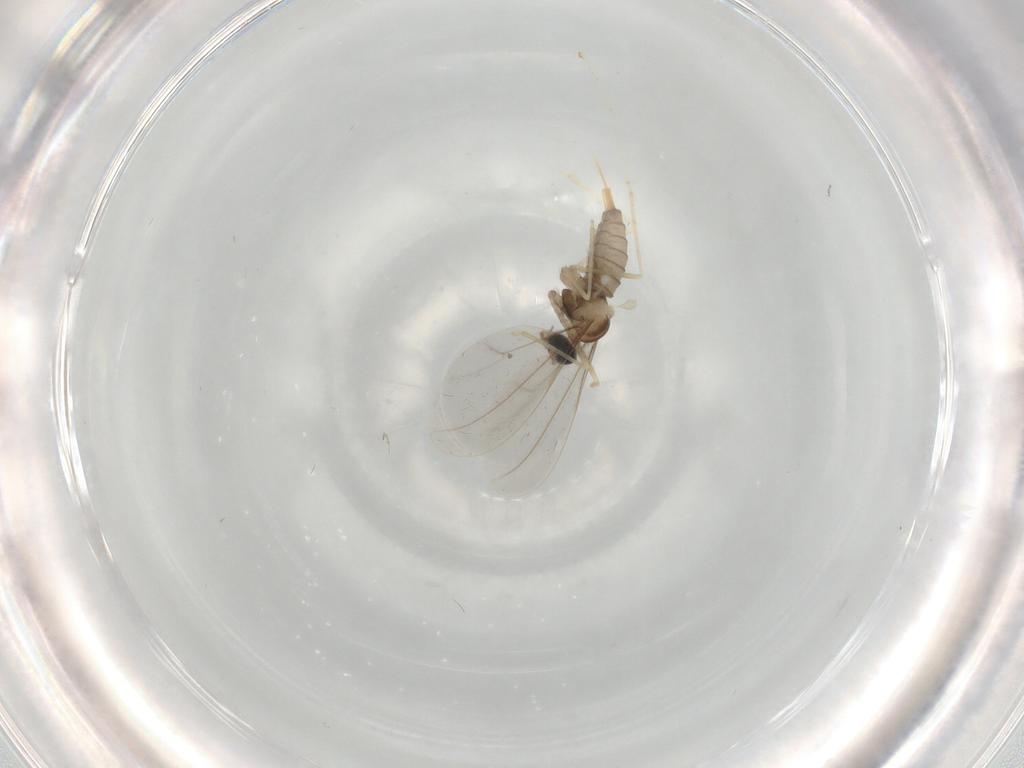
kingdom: Animalia
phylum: Arthropoda
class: Insecta
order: Diptera
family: Cecidomyiidae
